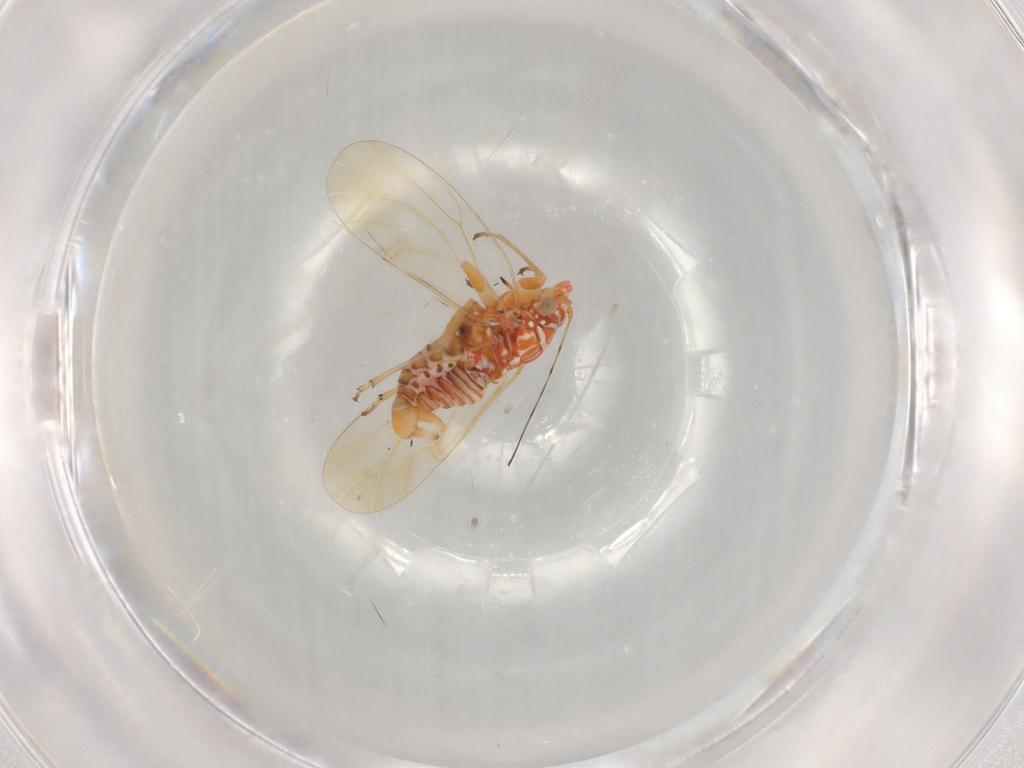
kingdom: Animalia
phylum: Arthropoda
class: Insecta
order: Hemiptera
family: Psyllidae
